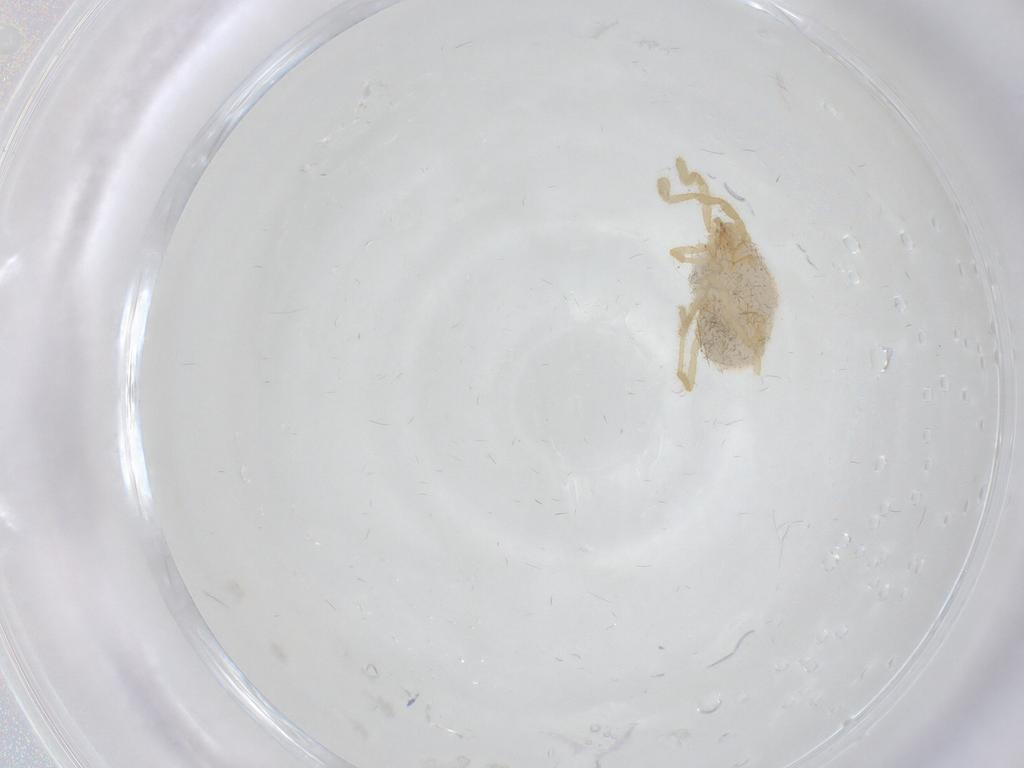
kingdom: Animalia
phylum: Arthropoda
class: Arachnida
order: Trombidiformes
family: Erythraeidae
